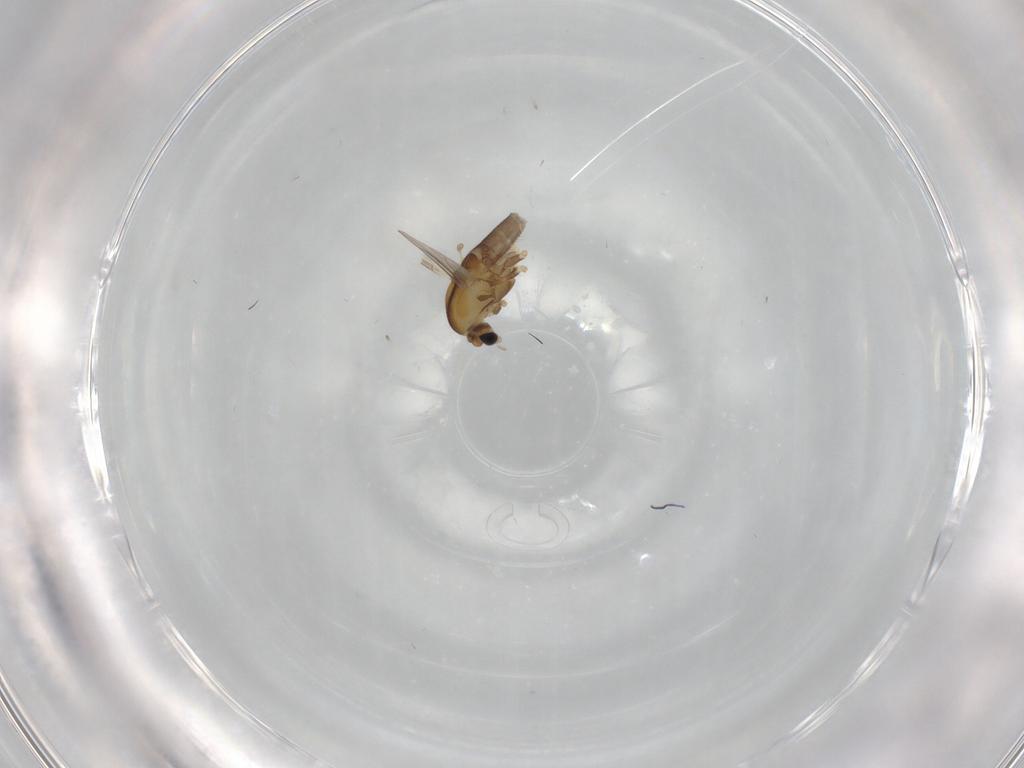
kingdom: Animalia
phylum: Arthropoda
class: Insecta
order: Diptera
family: Chironomidae
